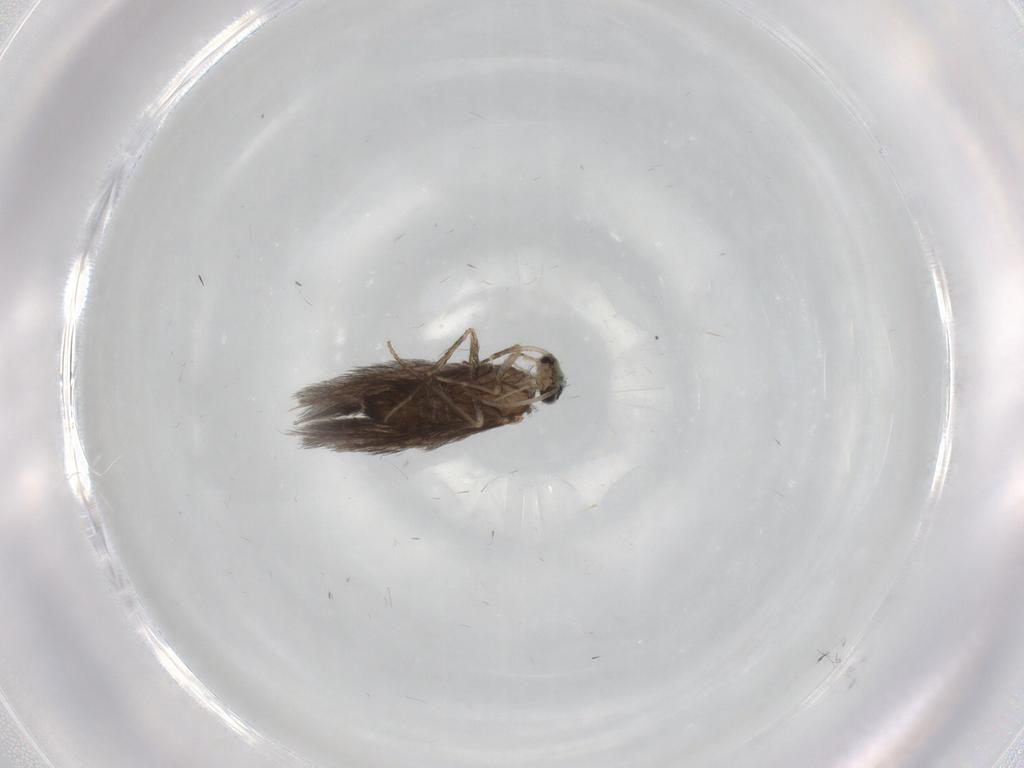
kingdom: Animalia
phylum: Arthropoda
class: Insecta
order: Trichoptera
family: Hydroptilidae
